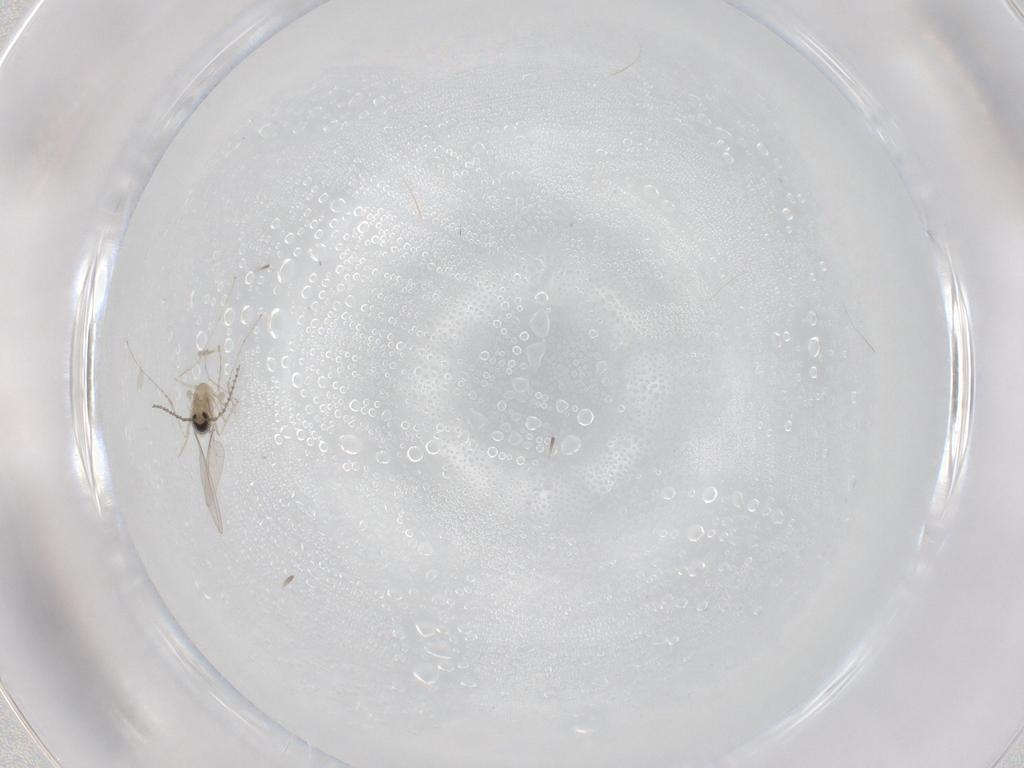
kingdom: Animalia
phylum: Arthropoda
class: Insecta
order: Diptera
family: Cecidomyiidae
